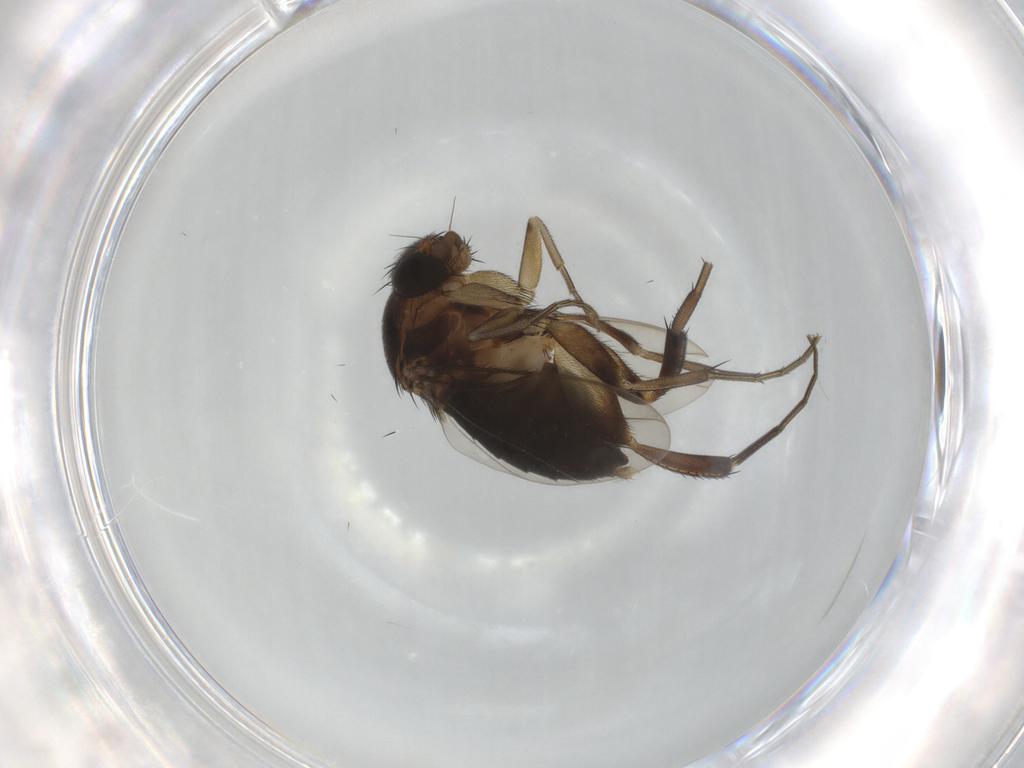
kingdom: Animalia
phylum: Arthropoda
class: Insecta
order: Diptera
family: Phoridae
